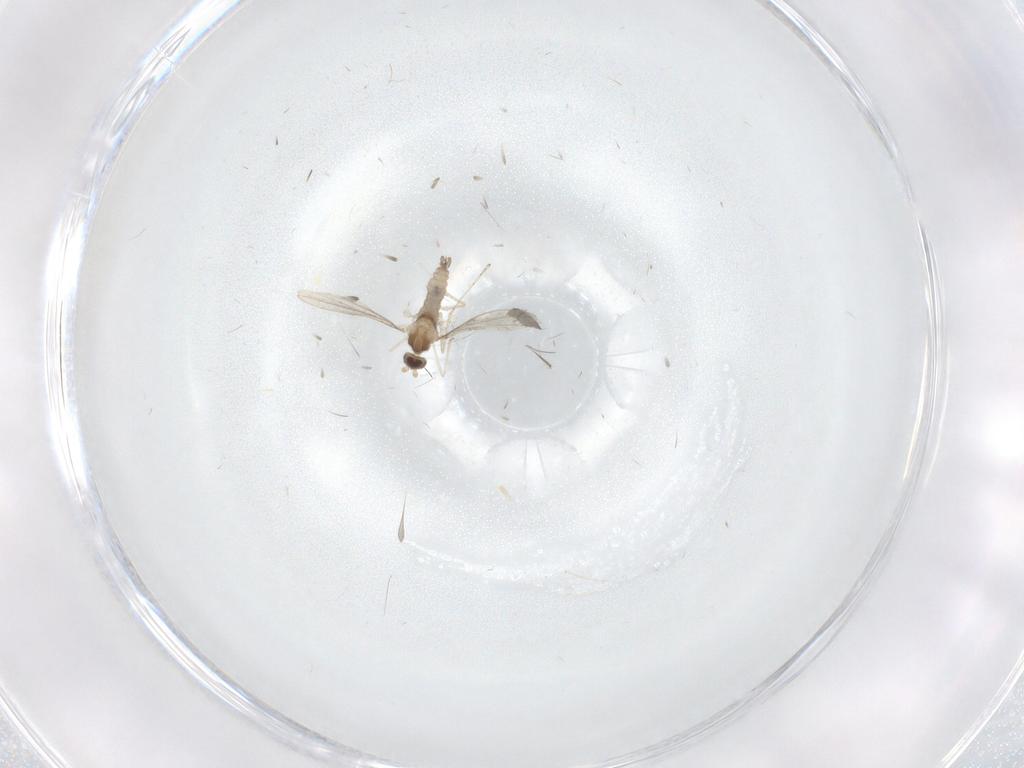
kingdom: Animalia
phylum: Arthropoda
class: Insecta
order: Diptera
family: Cecidomyiidae
